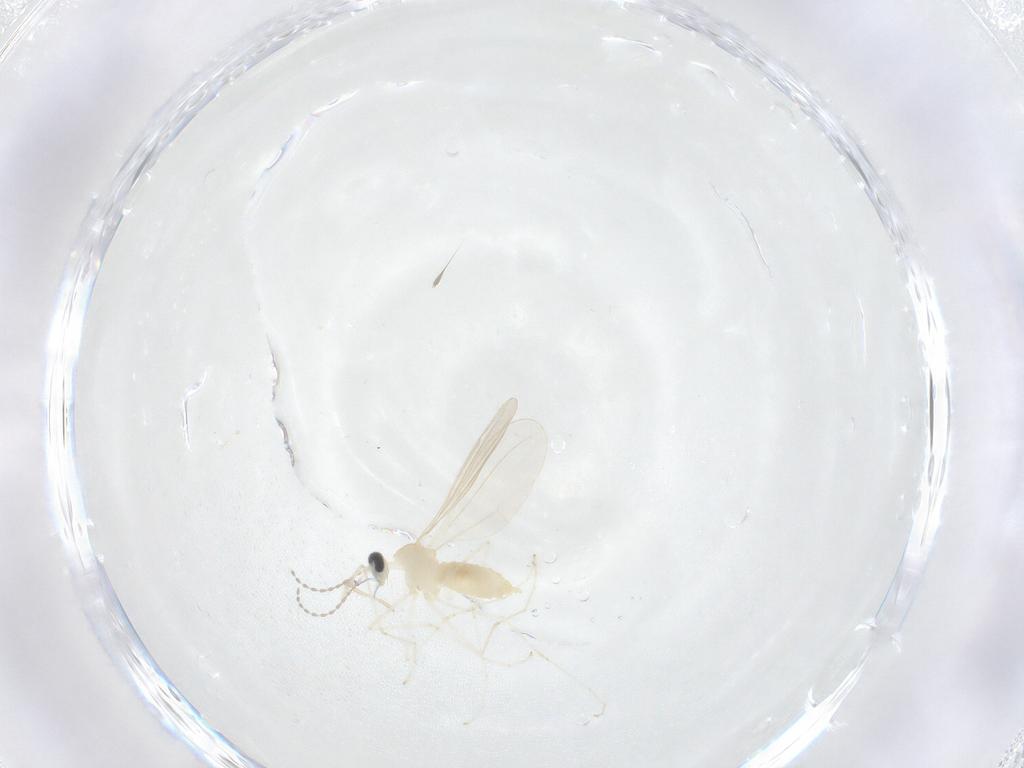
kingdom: Animalia
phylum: Arthropoda
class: Insecta
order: Diptera
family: Cecidomyiidae
